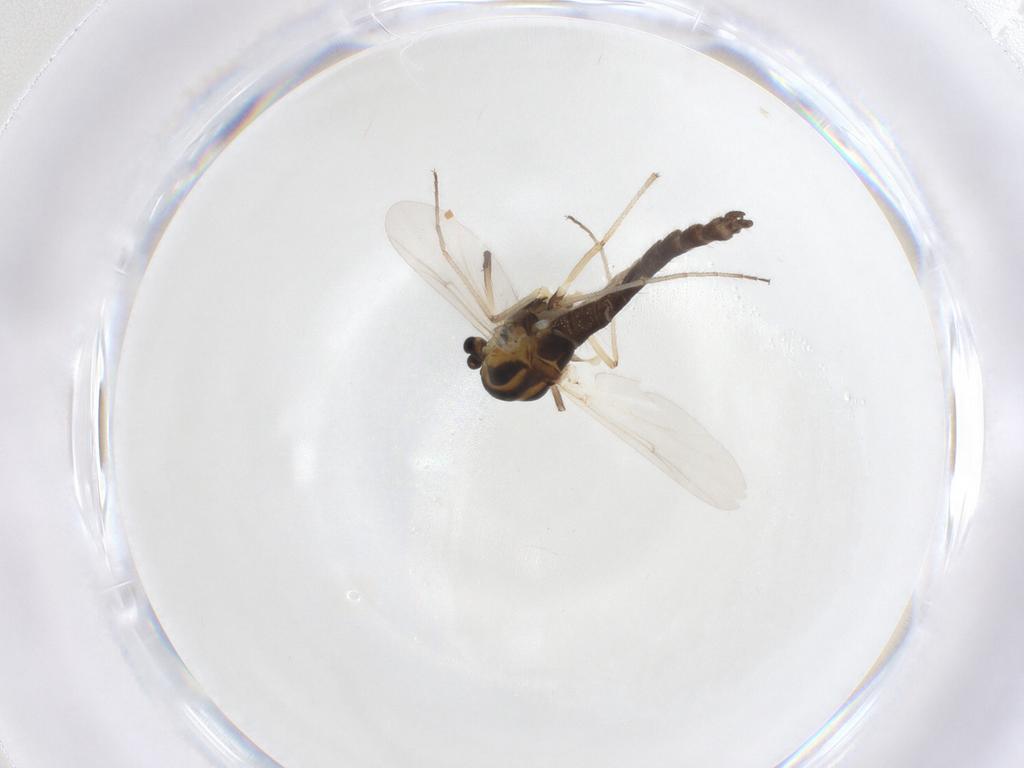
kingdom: Animalia
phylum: Arthropoda
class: Insecta
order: Diptera
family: Chironomidae
